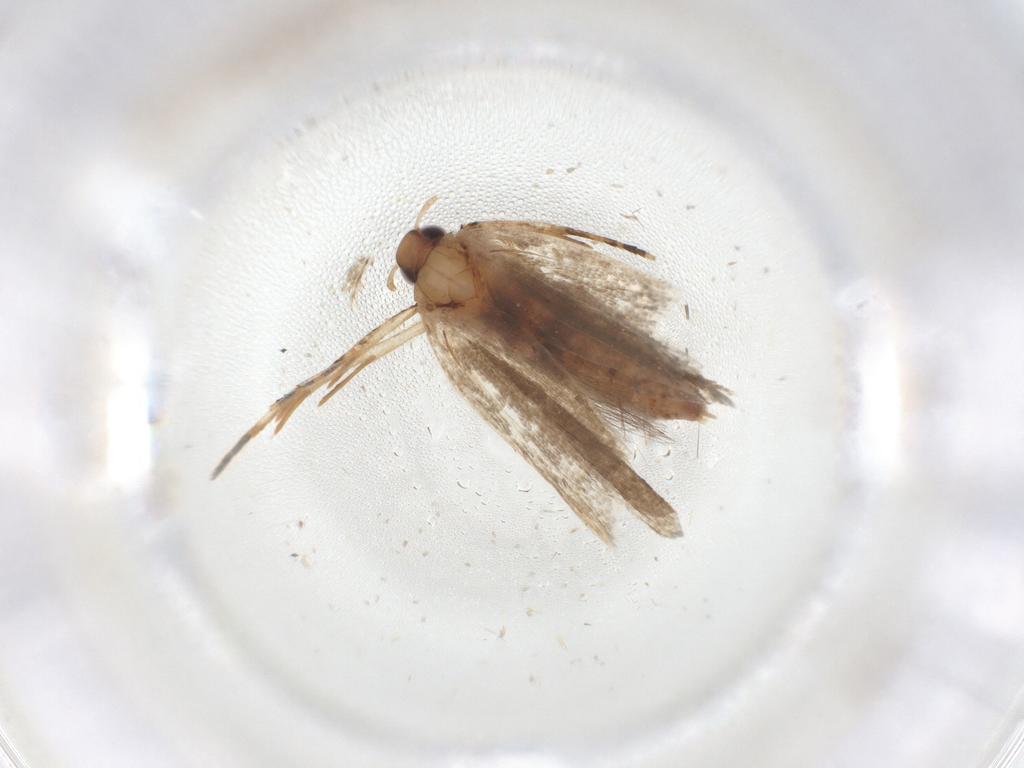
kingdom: Animalia
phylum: Arthropoda
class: Insecta
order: Lepidoptera
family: Gelechiidae
